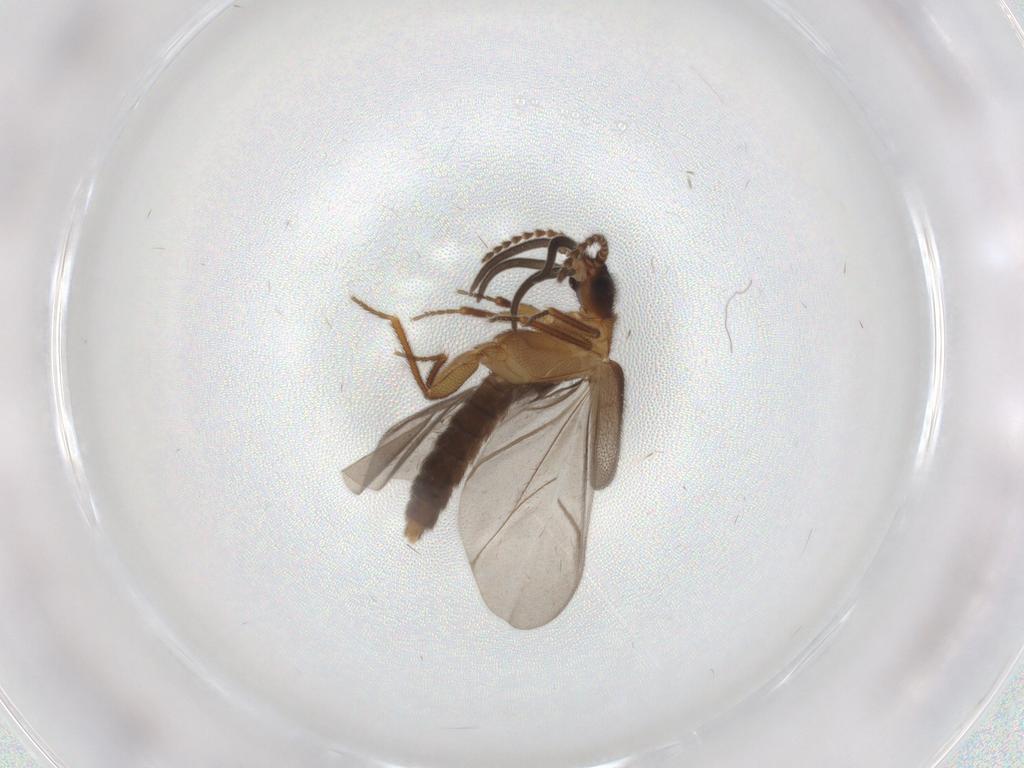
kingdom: Animalia
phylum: Arthropoda
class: Insecta
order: Coleoptera
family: Omethidae
